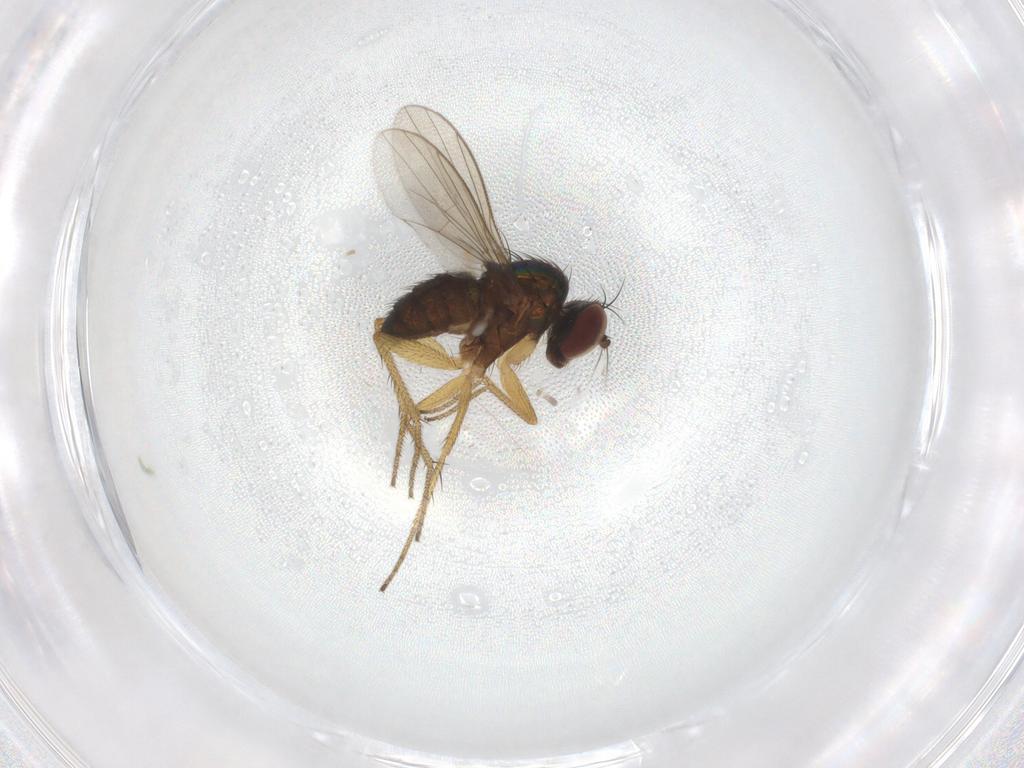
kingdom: Animalia
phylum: Arthropoda
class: Insecta
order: Diptera
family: Dolichopodidae
